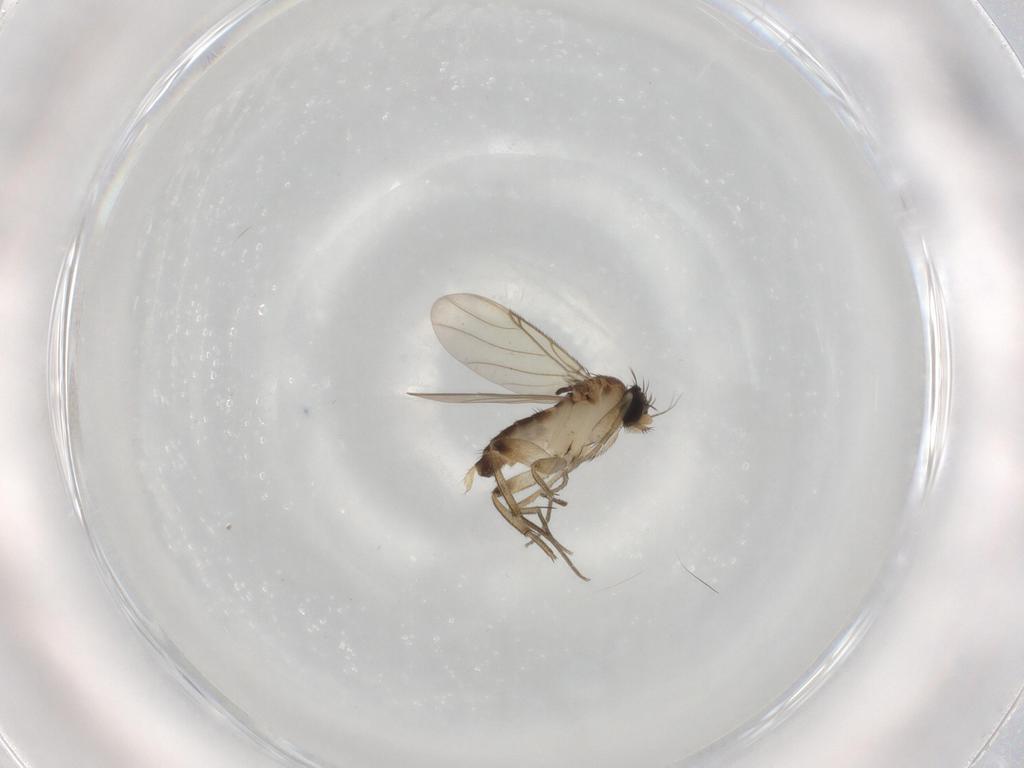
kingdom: Animalia
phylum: Arthropoda
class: Insecta
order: Diptera
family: Phoridae
